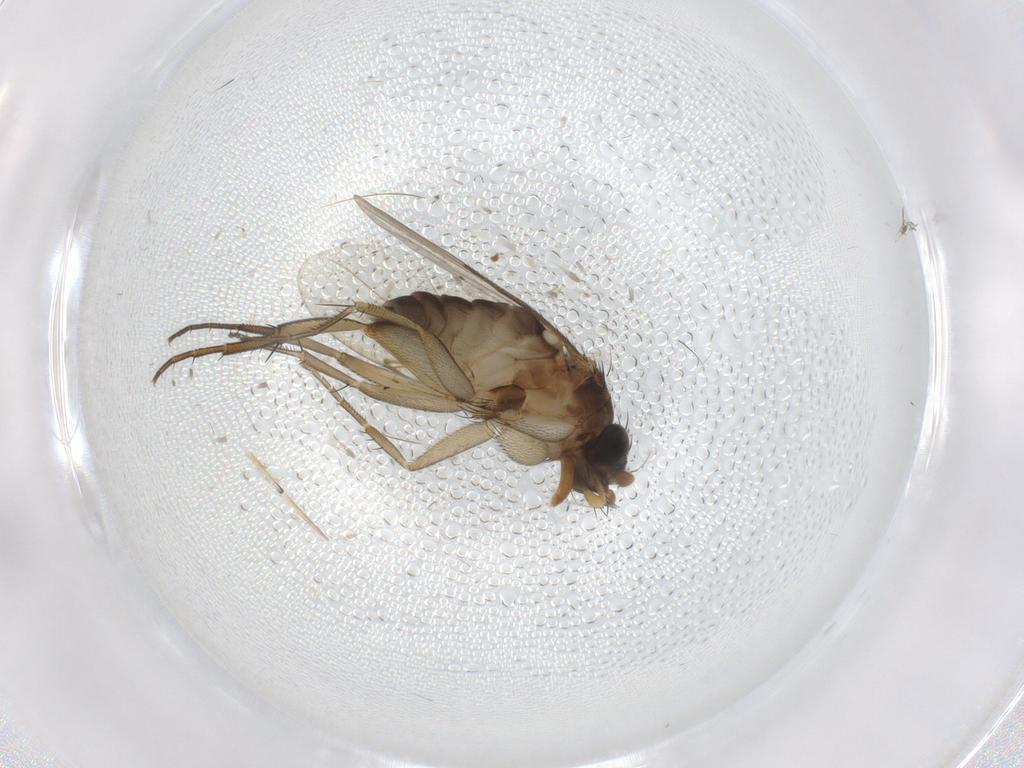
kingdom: Animalia
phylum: Arthropoda
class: Insecta
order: Diptera
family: Phoridae
